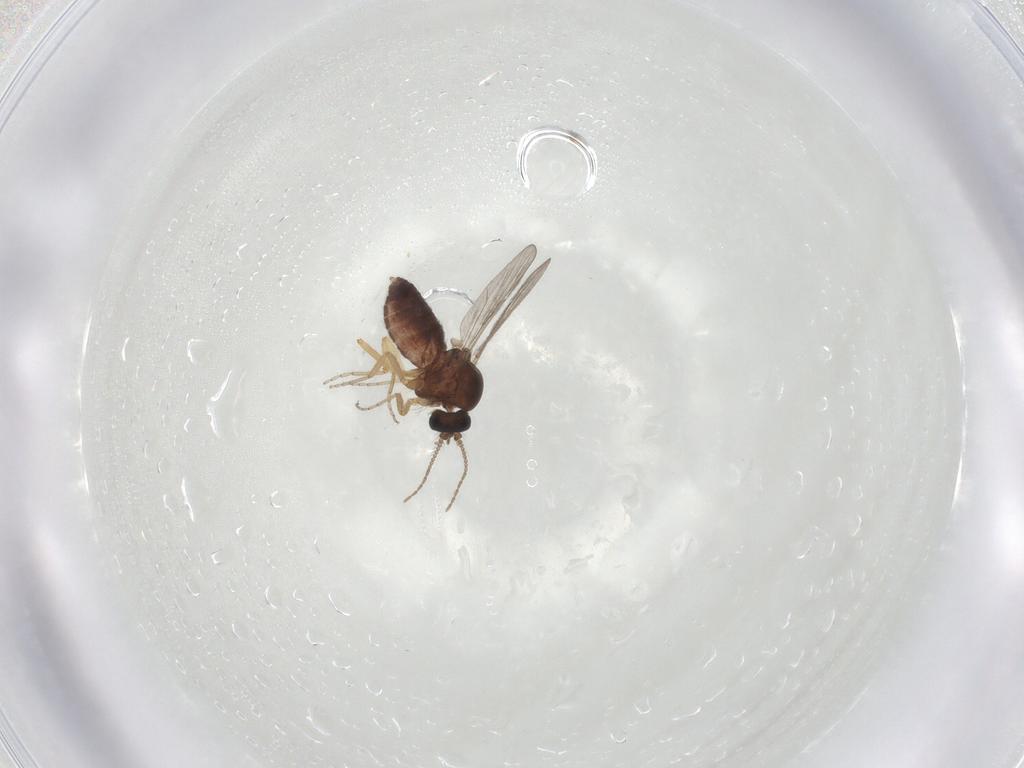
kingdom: Animalia
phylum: Arthropoda
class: Insecta
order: Diptera
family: Ceratopogonidae
